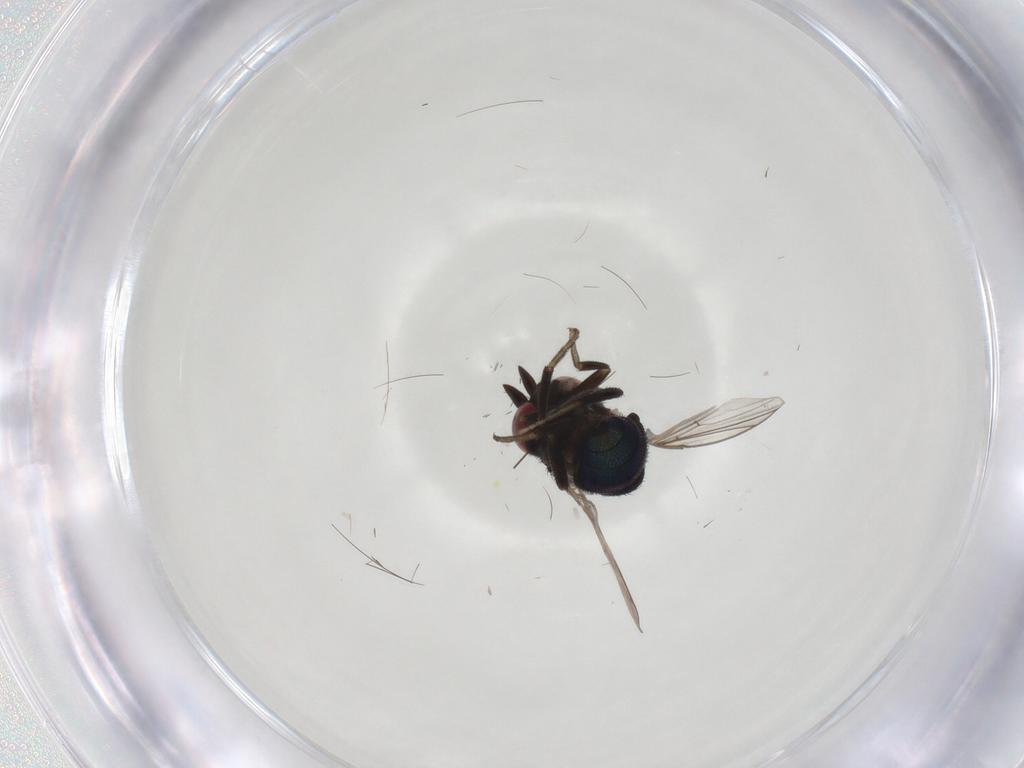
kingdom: Animalia
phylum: Arthropoda
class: Insecta
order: Diptera
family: Cryptochetidae
